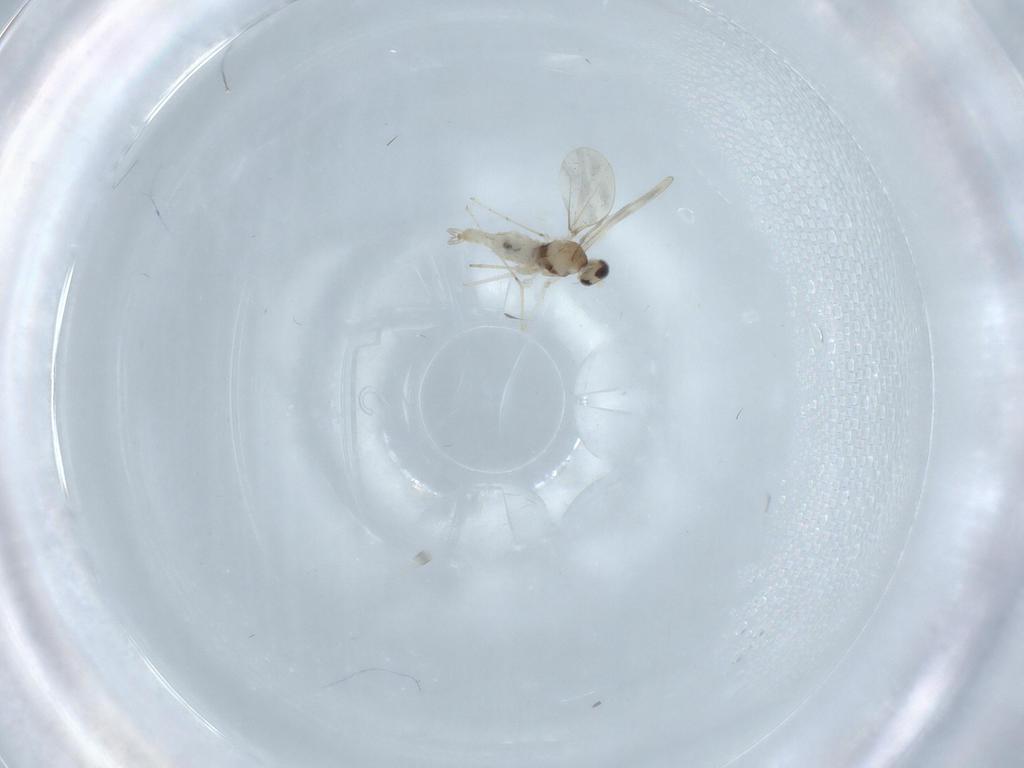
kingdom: Animalia
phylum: Arthropoda
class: Insecta
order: Diptera
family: Cecidomyiidae
